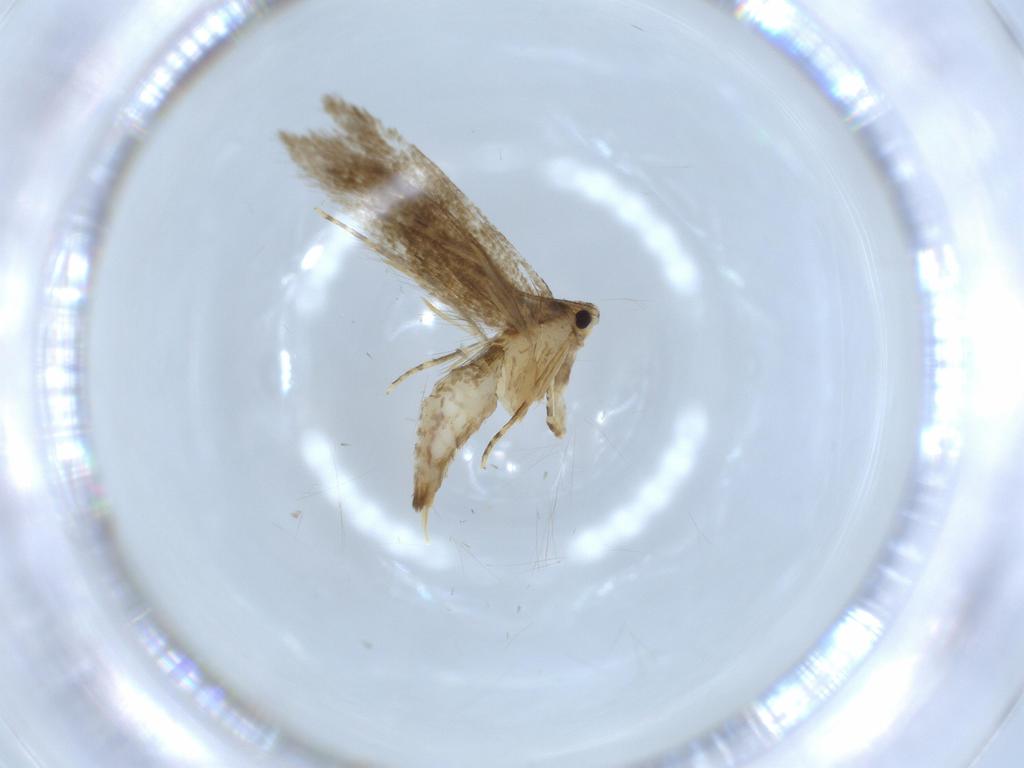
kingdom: Animalia
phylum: Arthropoda
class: Insecta
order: Lepidoptera
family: Tineidae
